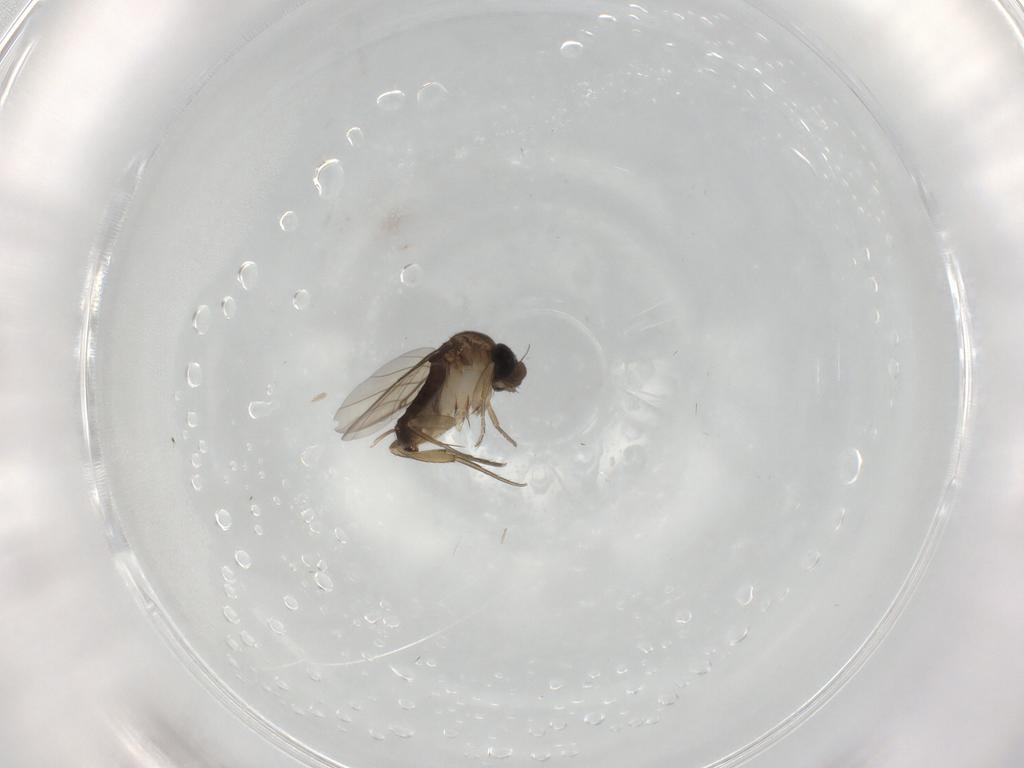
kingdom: Animalia
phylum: Arthropoda
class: Insecta
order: Diptera
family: Phoridae
